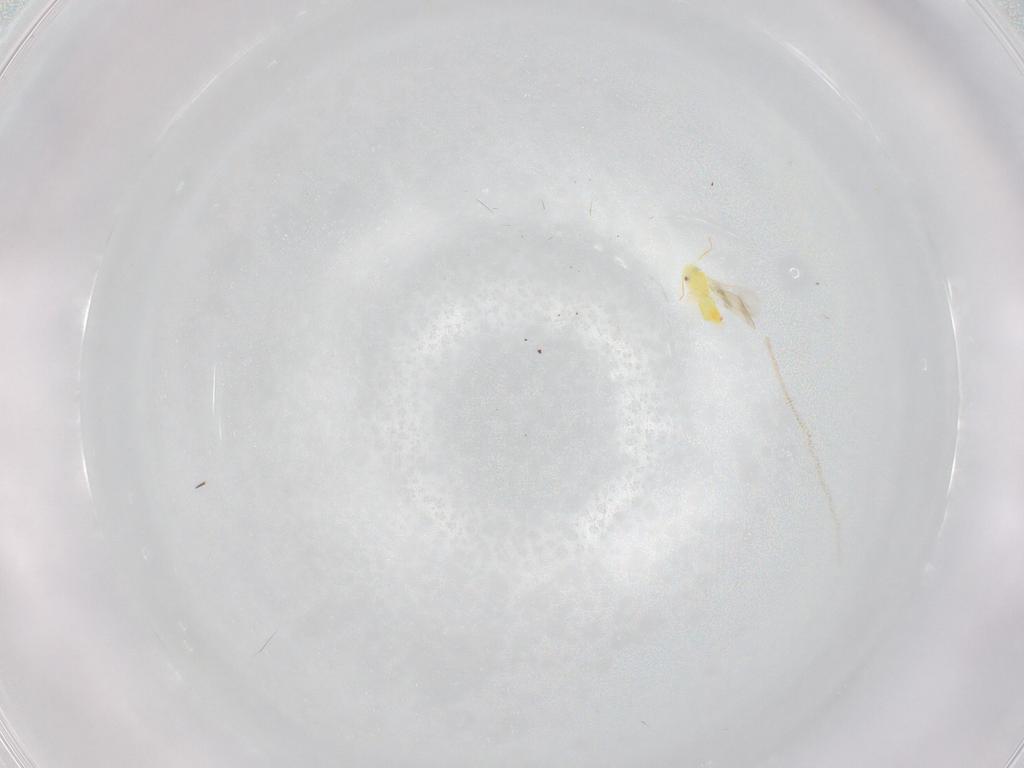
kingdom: Animalia
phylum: Arthropoda
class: Insecta
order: Hemiptera
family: Aleyrodidae
